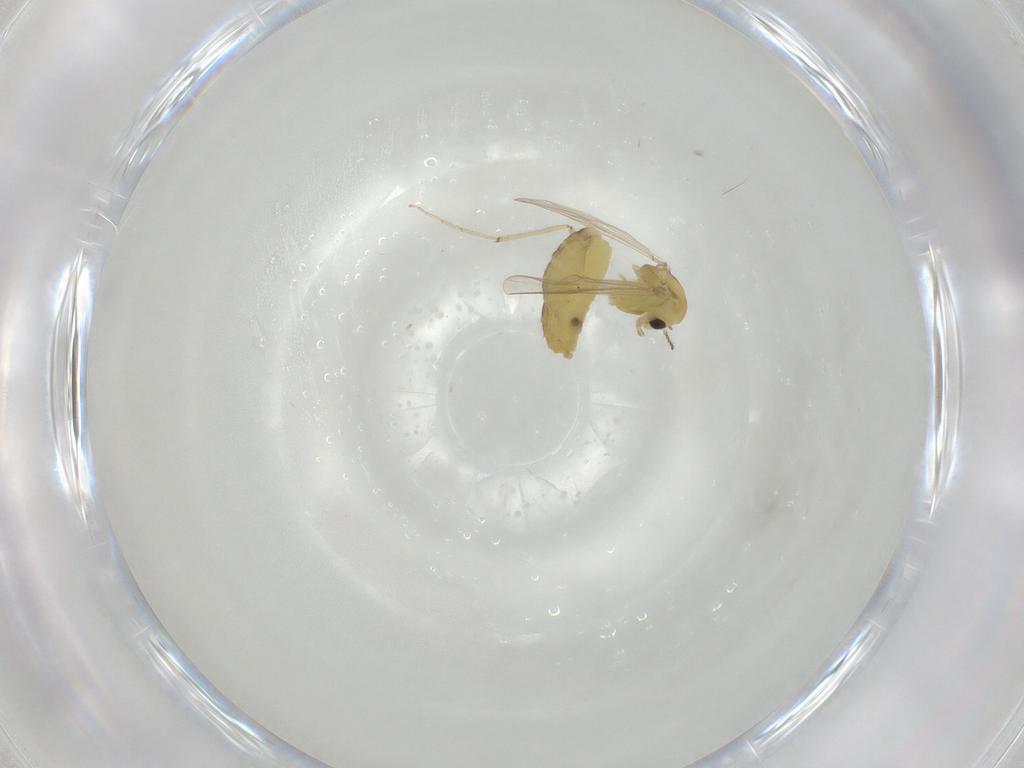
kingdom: Animalia
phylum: Arthropoda
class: Insecta
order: Diptera
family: Chironomidae
